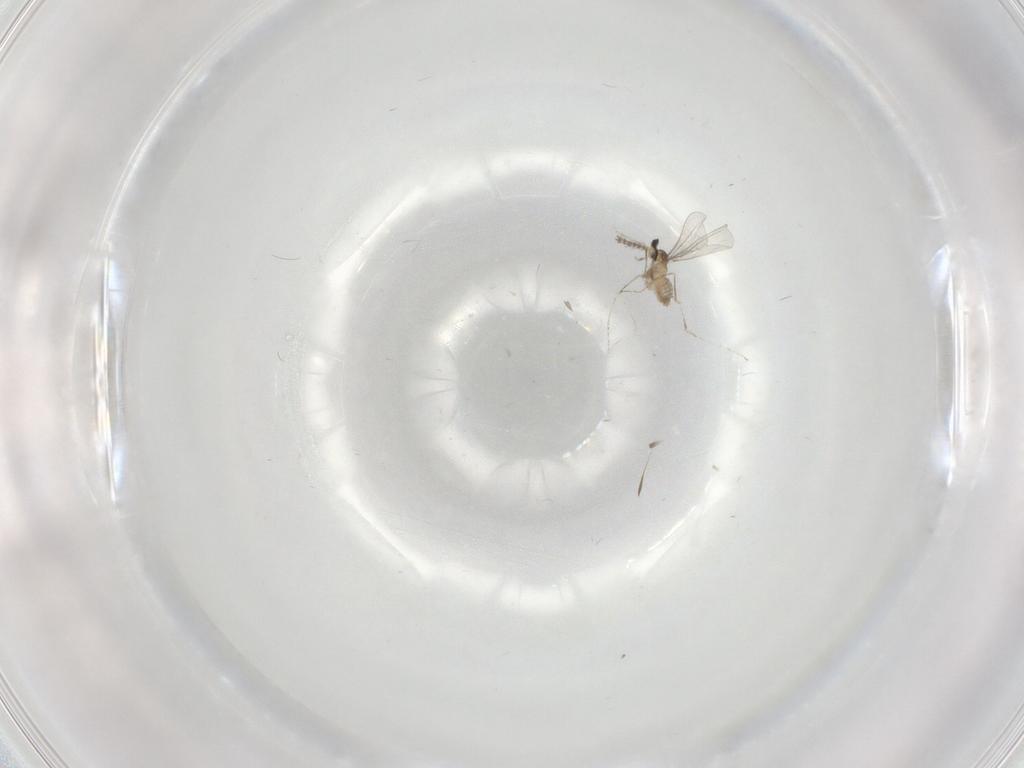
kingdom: Animalia
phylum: Arthropoda
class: Insecta
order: Diptera
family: Cecidomyiidae
